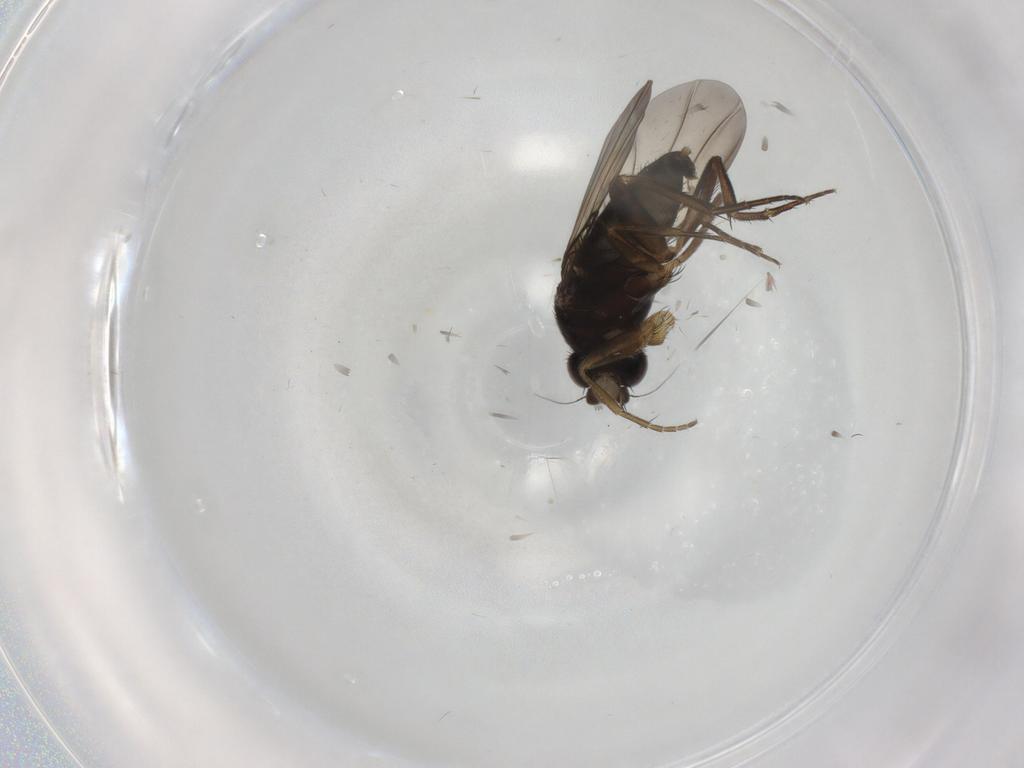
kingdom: Animalia
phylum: Arthropoda
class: Insecta
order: Diptera
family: Phoridae
